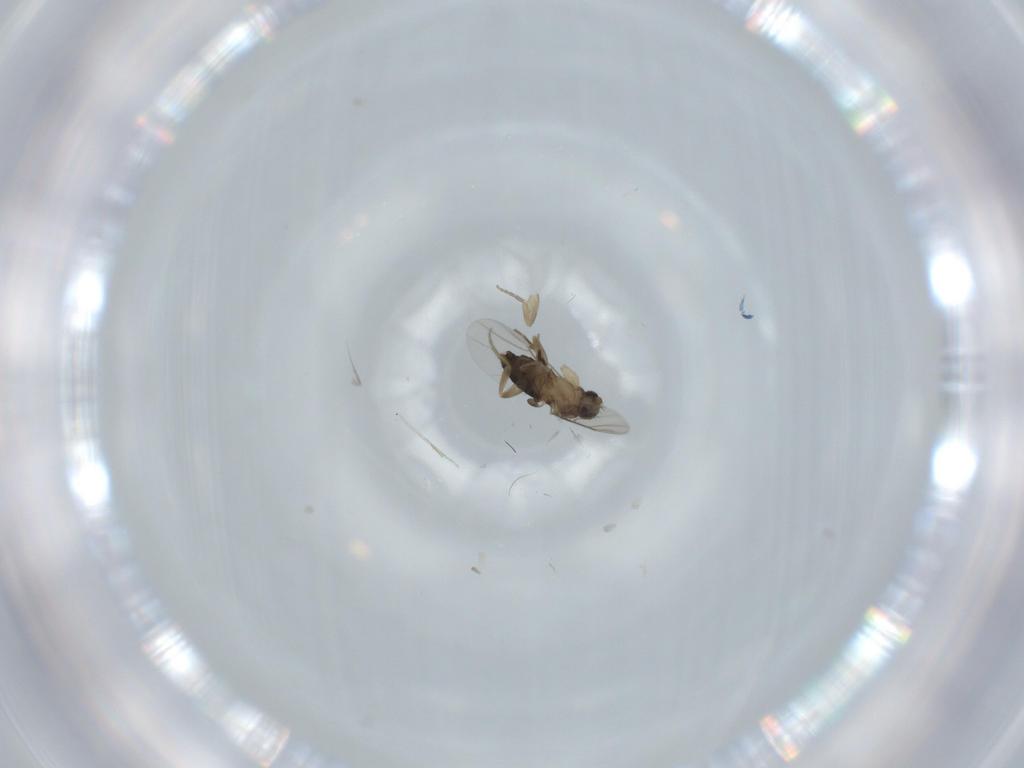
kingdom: Animalia
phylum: Arthropoda
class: Insecta
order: Diptera
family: Phoridae
